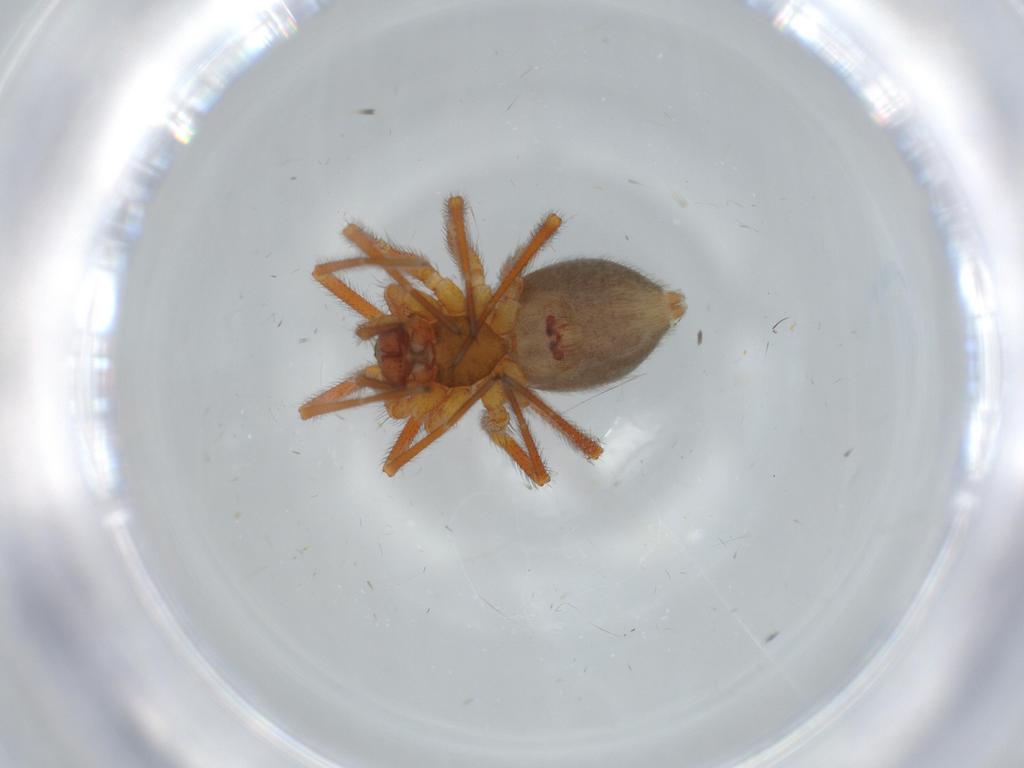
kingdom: Animalia
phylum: Arthropoda
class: Arachnida
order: Araneae
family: Linyphiidae
